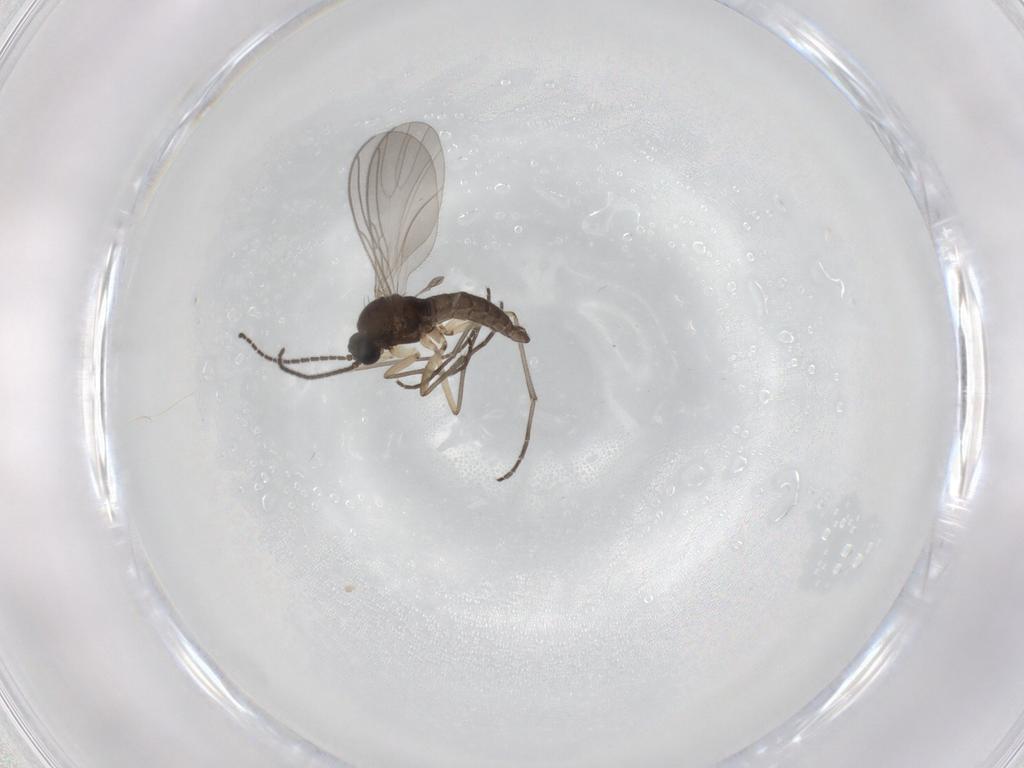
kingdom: Animalia
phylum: Arthropoda
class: Insecta
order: Diptera
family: Sciaridae
